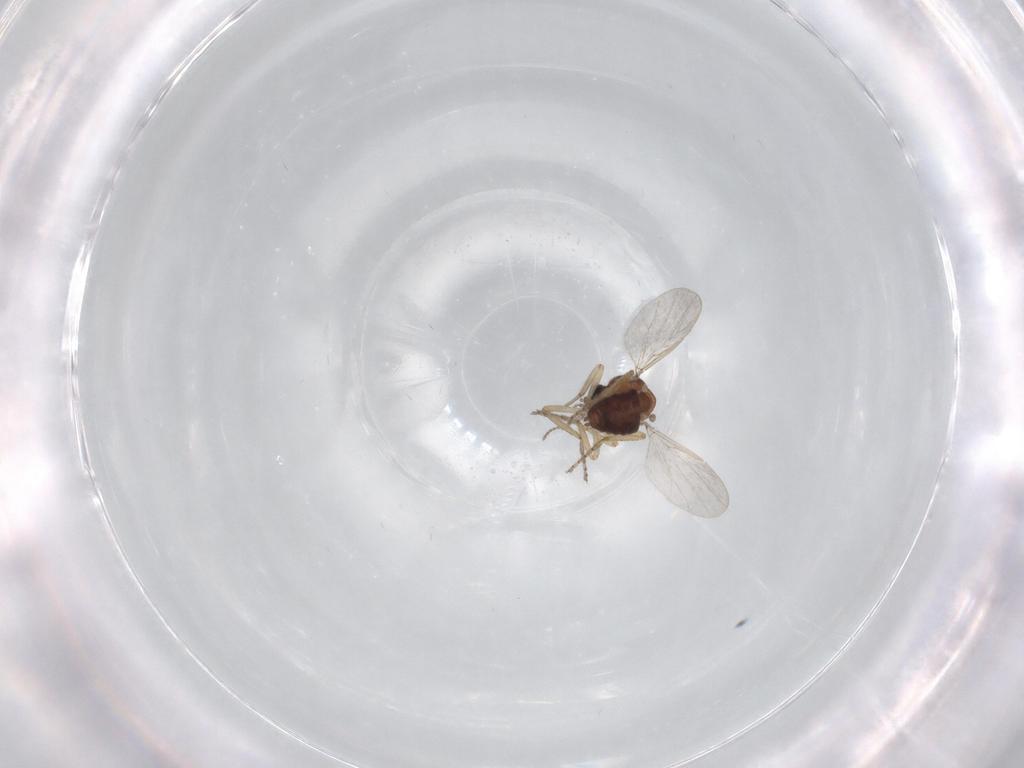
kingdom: Animalia
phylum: Arthropoda
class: Insecta
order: Diptera
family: Ceratopogonidae
